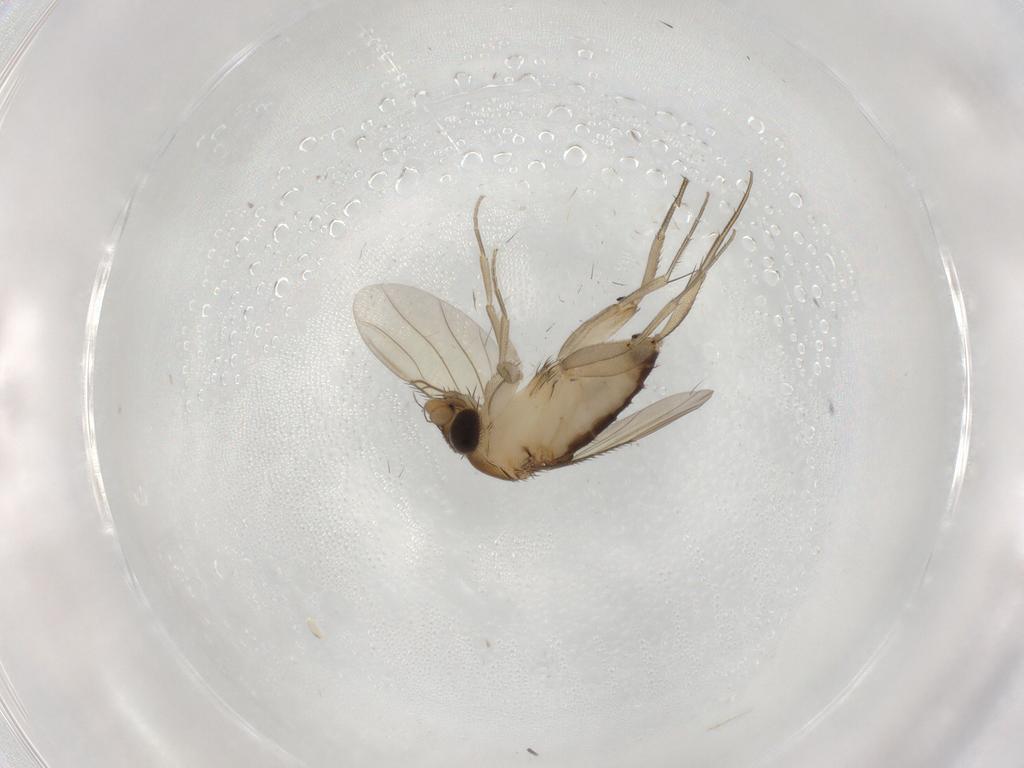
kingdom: Animalia
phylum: Arthropoda
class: Insecta
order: Diptera
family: Phoridae
